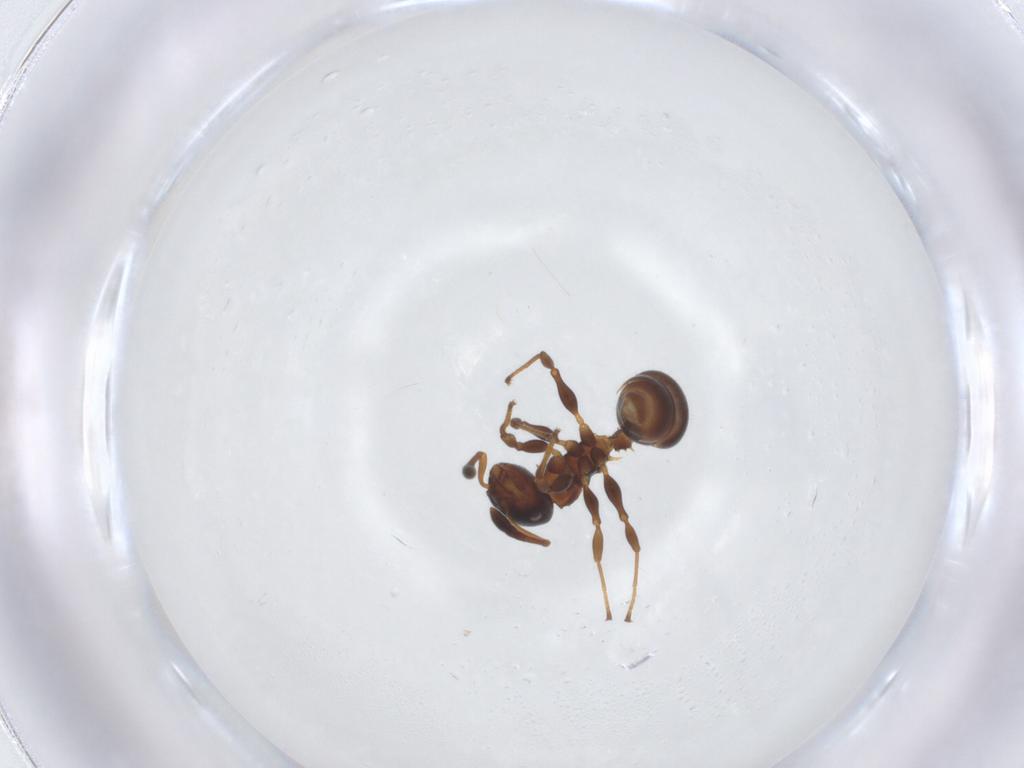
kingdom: Animalia
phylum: Arthropoda
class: Insecta
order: Hymenoptera
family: Formicidae
